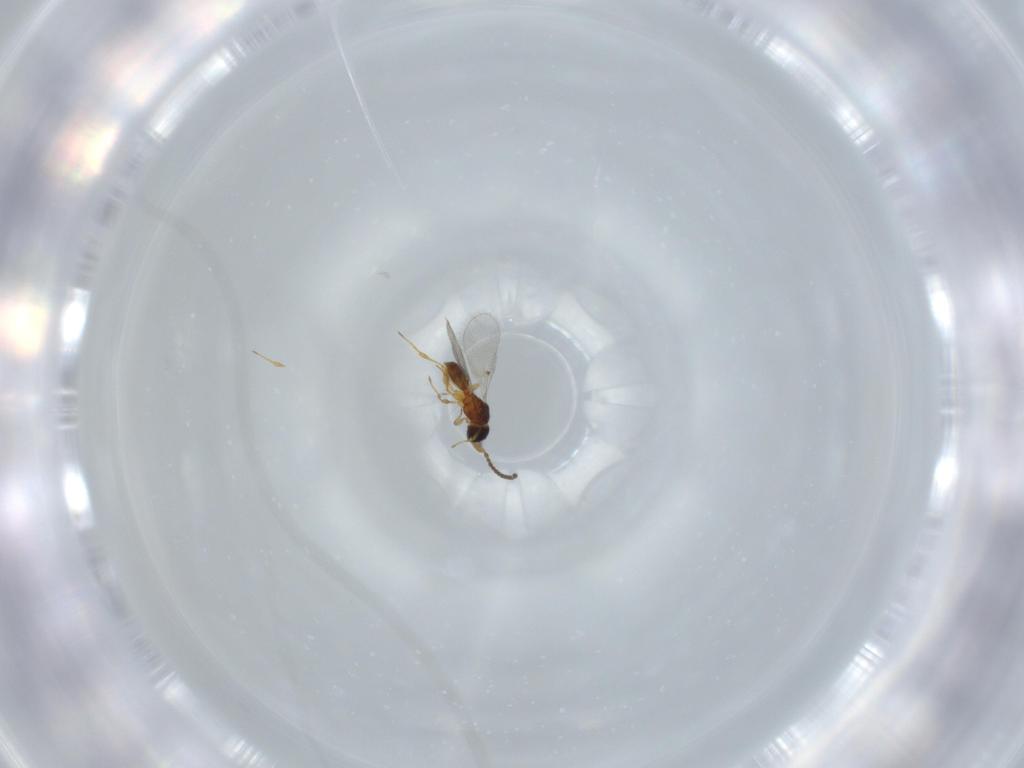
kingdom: Animalia
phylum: Arthropoda
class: Insecta
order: Hymenoptera
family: Diapriidae
